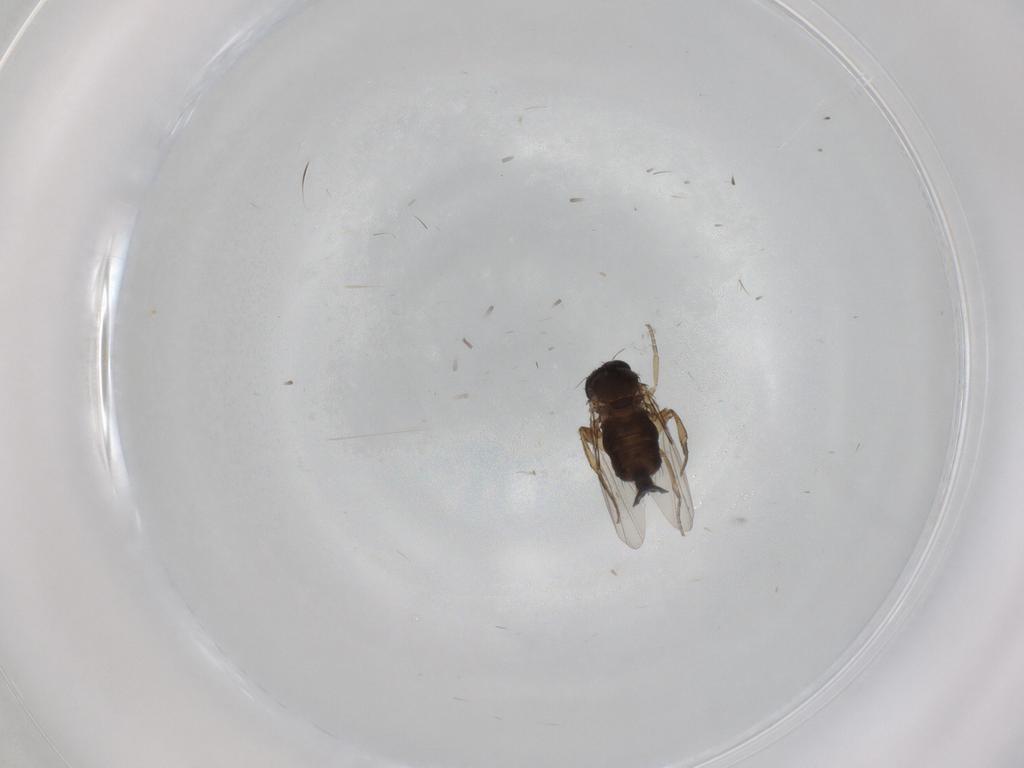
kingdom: Animalia
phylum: Arthropoda
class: Insecta
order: Diptera
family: Phoridae
